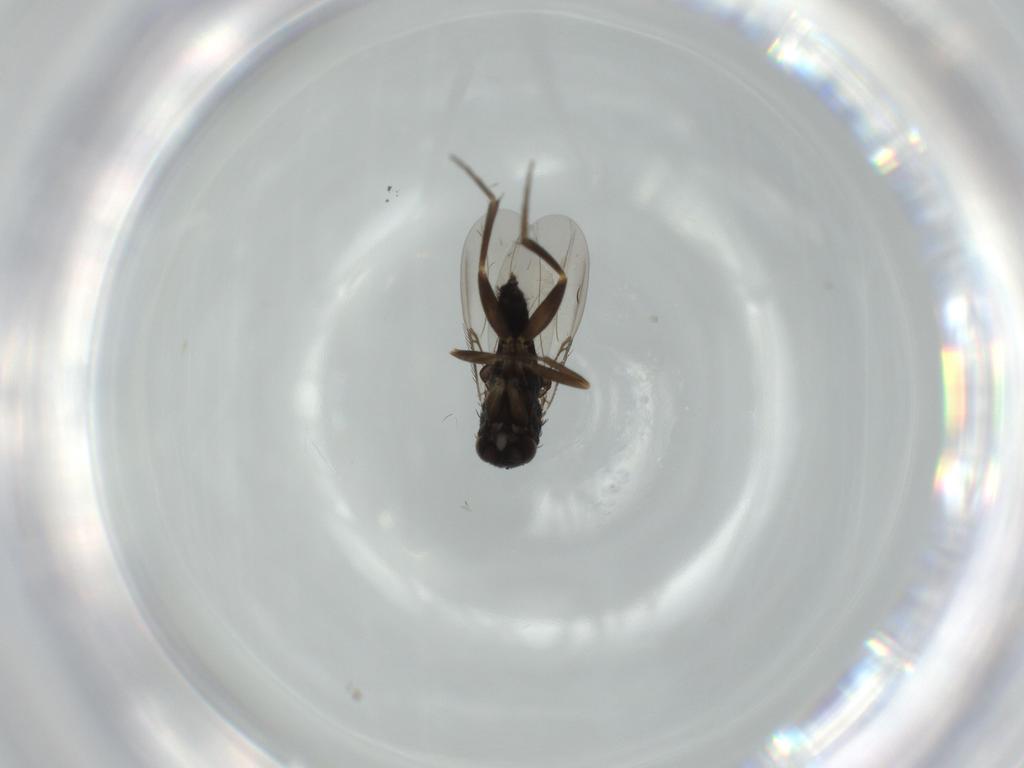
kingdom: Animalia
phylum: Arthropoda
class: Insecta
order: Diptera
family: Phoridae
